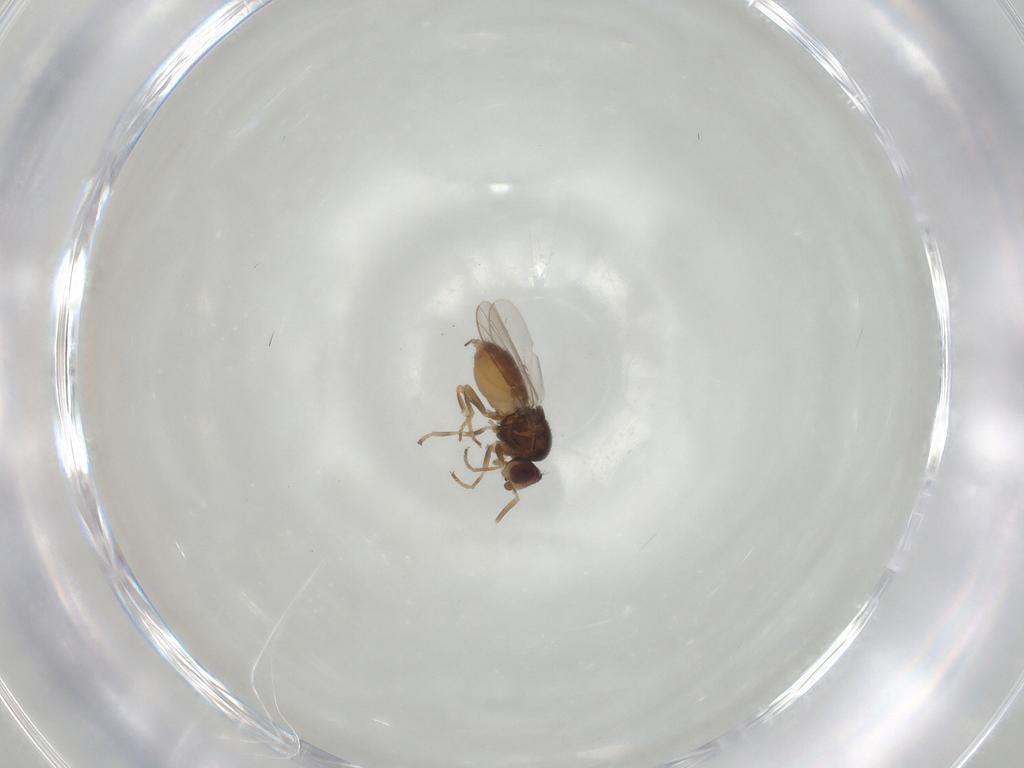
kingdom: Animalia
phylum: Arthropoda
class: Insecta
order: Diptera
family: Chloropidae
